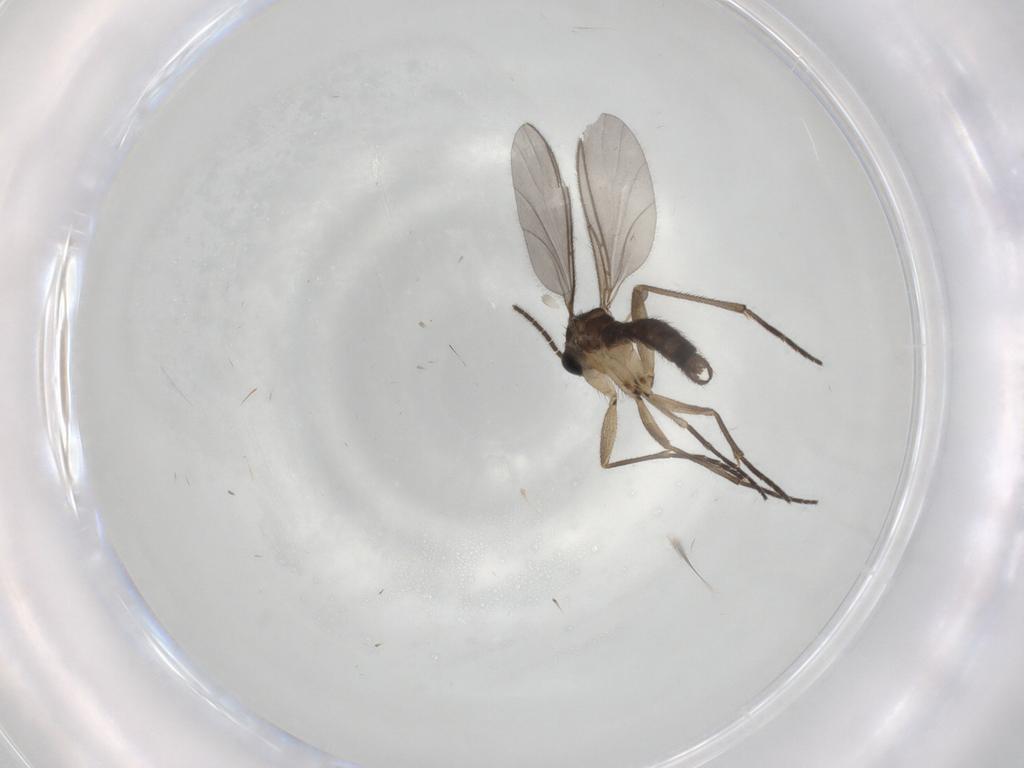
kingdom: Animalia
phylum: Arthropoda
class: Insecta
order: Diptera
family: Sciaridae
